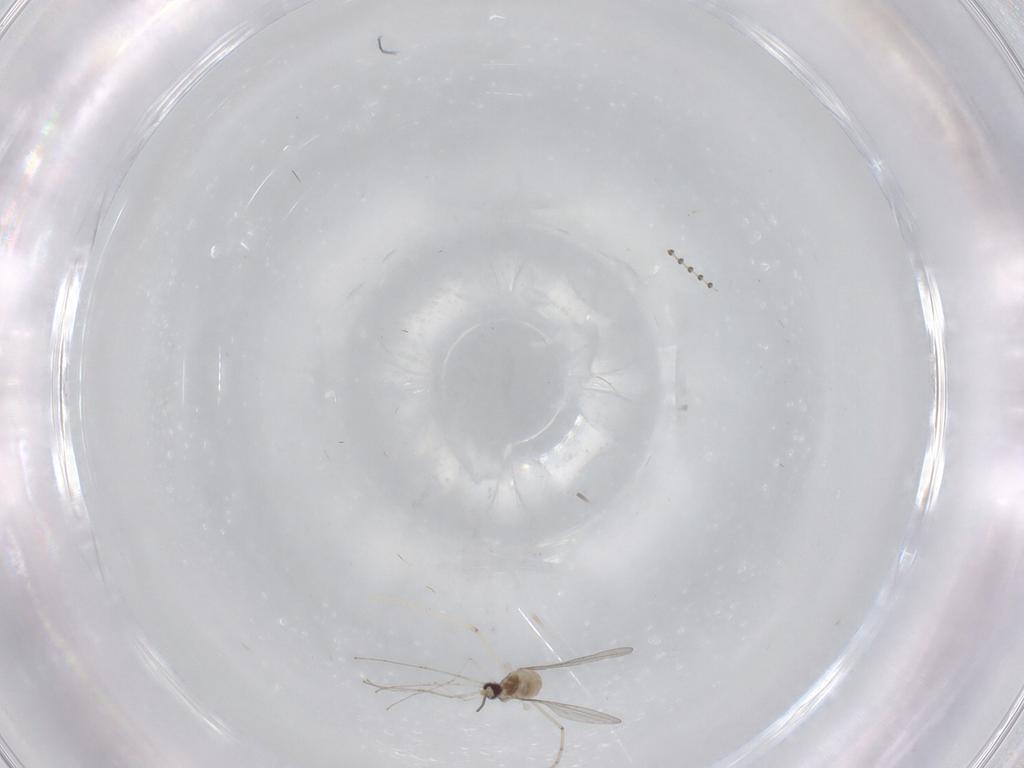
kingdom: Animalia
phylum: Arthropoda
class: Insecta
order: Diptera
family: Cecidomyiidae
